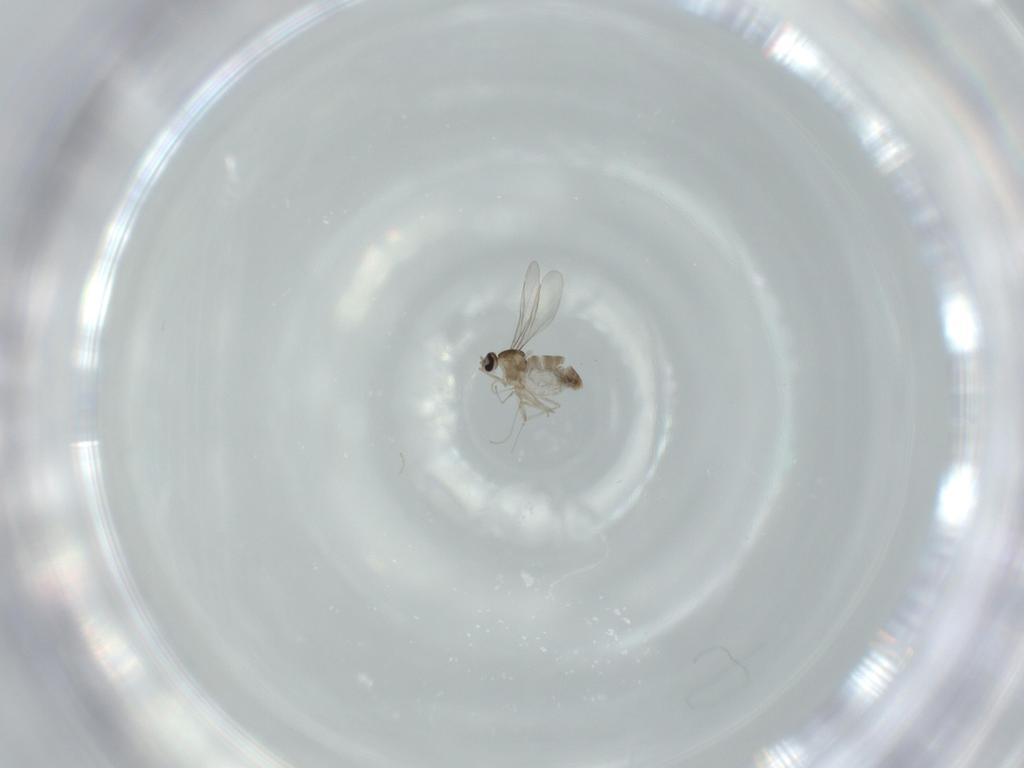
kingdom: Animalia
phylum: Arthropoda
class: Insecta
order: Diptera
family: Cecidomyiidae
